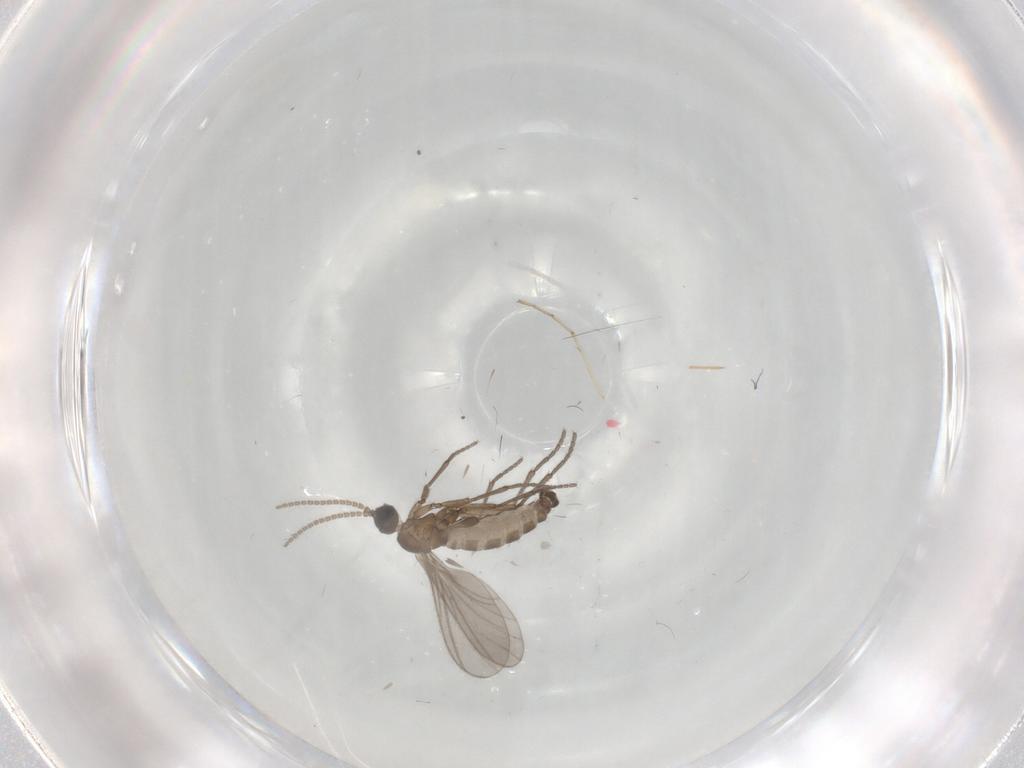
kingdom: Animalia
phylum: Arthropoda
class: Insecta
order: Diptera
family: Sciaridae
